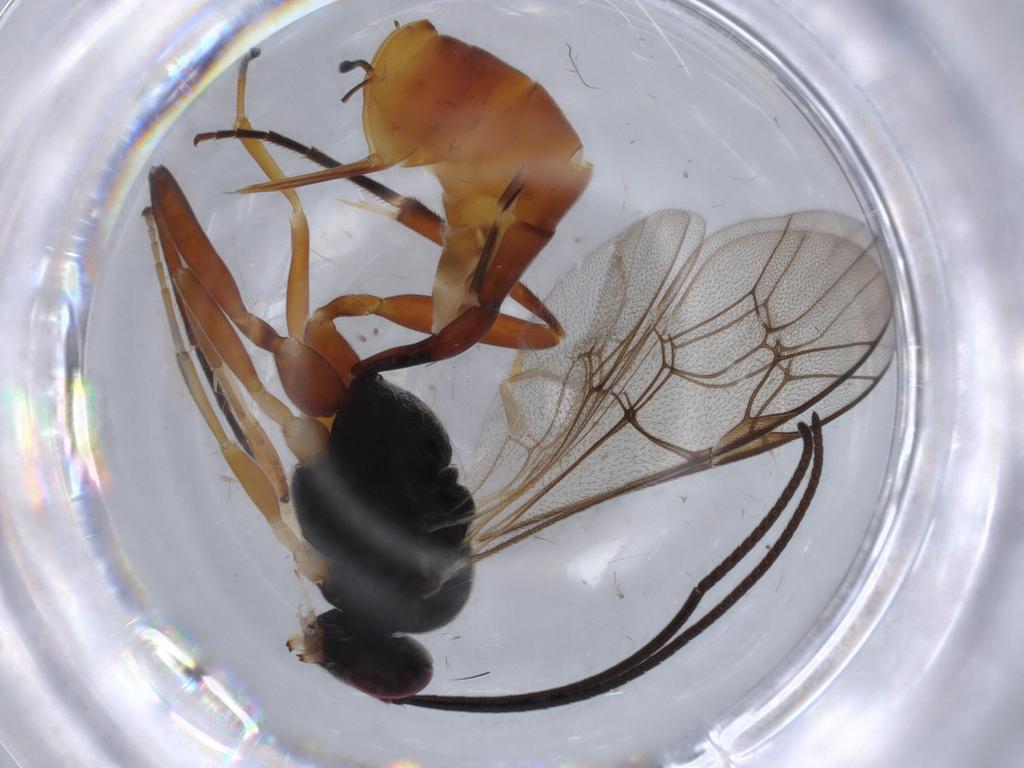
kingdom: Animalia
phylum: Arthropoda
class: Insecta
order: Hymenoptera
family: Ichneumonidae
